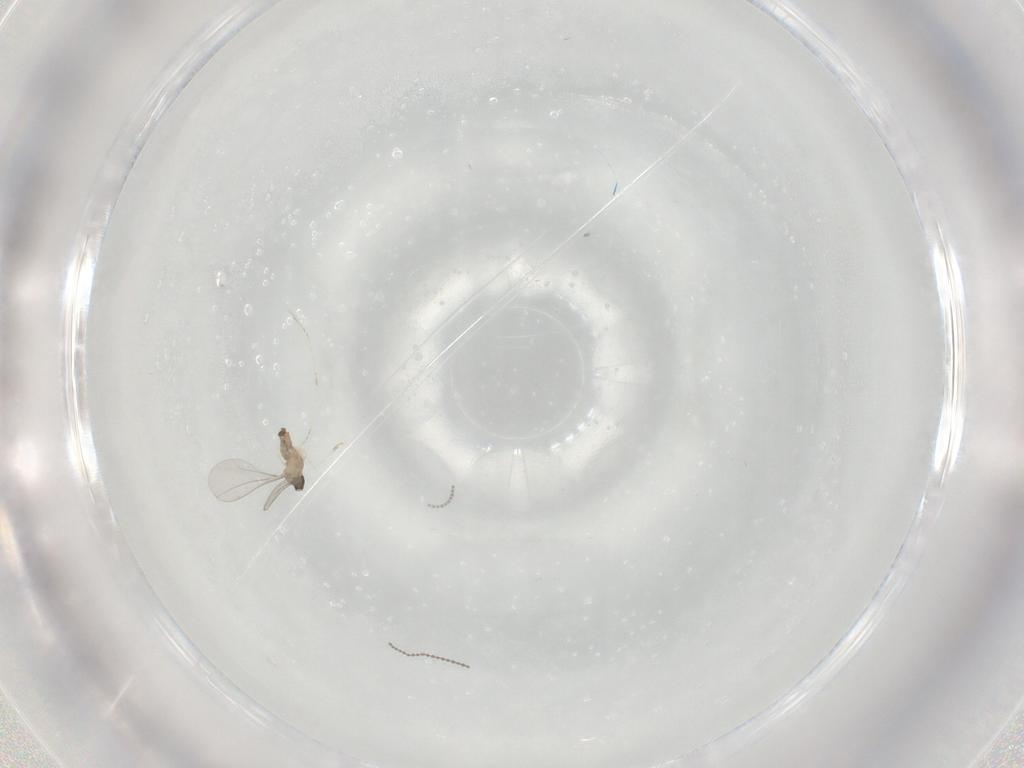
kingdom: Animalia
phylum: Arthropoda
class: Insecta
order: Diptera
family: Cecidomyiidae
